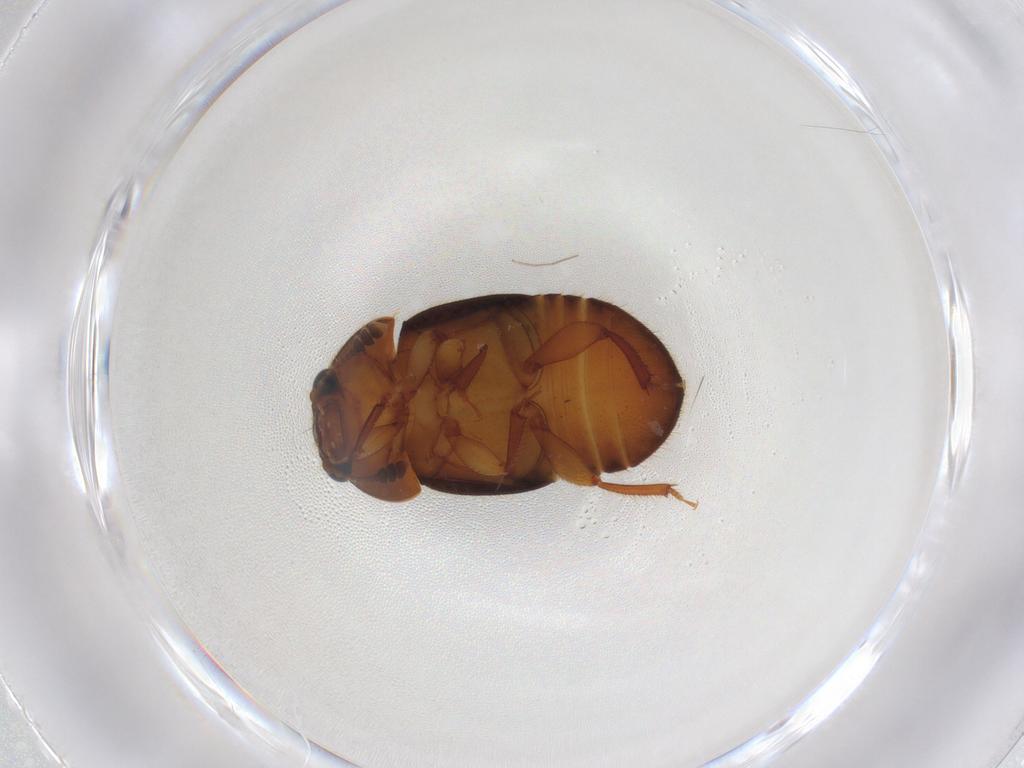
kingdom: Animalia
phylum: Arthropoda
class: Insecta
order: Coleoptera
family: Nitidulidae
